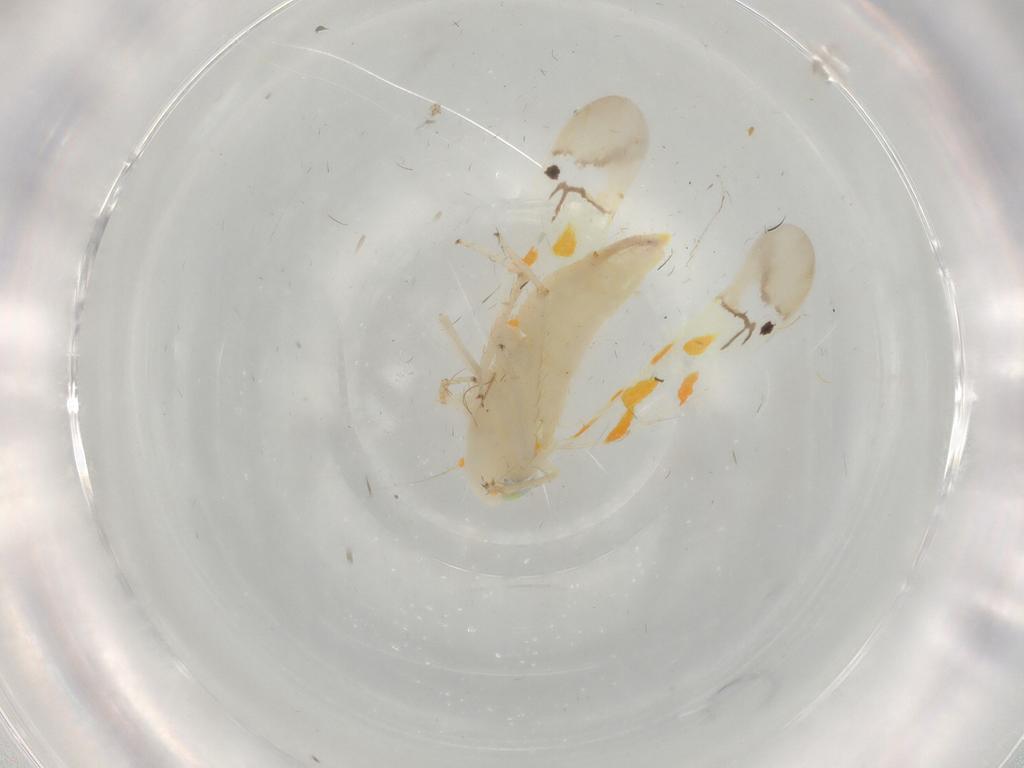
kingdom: Animalia
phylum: Arthropoda
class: Insecta
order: Hemiptera
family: Cicadellidae
